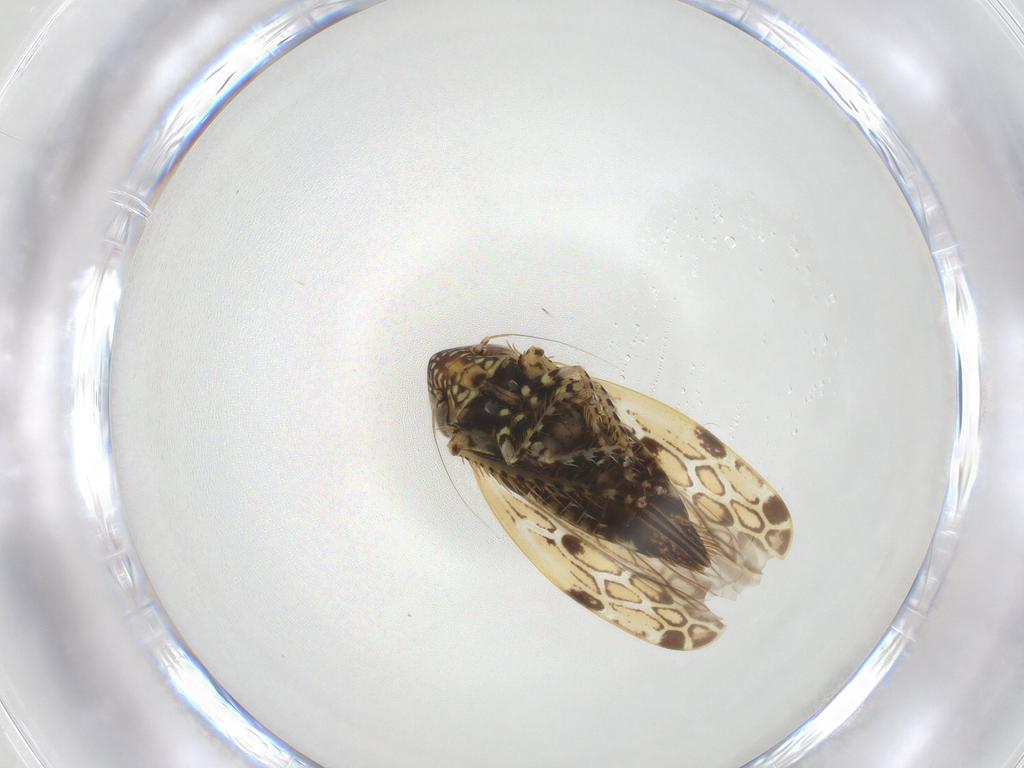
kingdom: Animalia
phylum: Arthropoda
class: Insecta
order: Hemiptera
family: Cicadellidae
